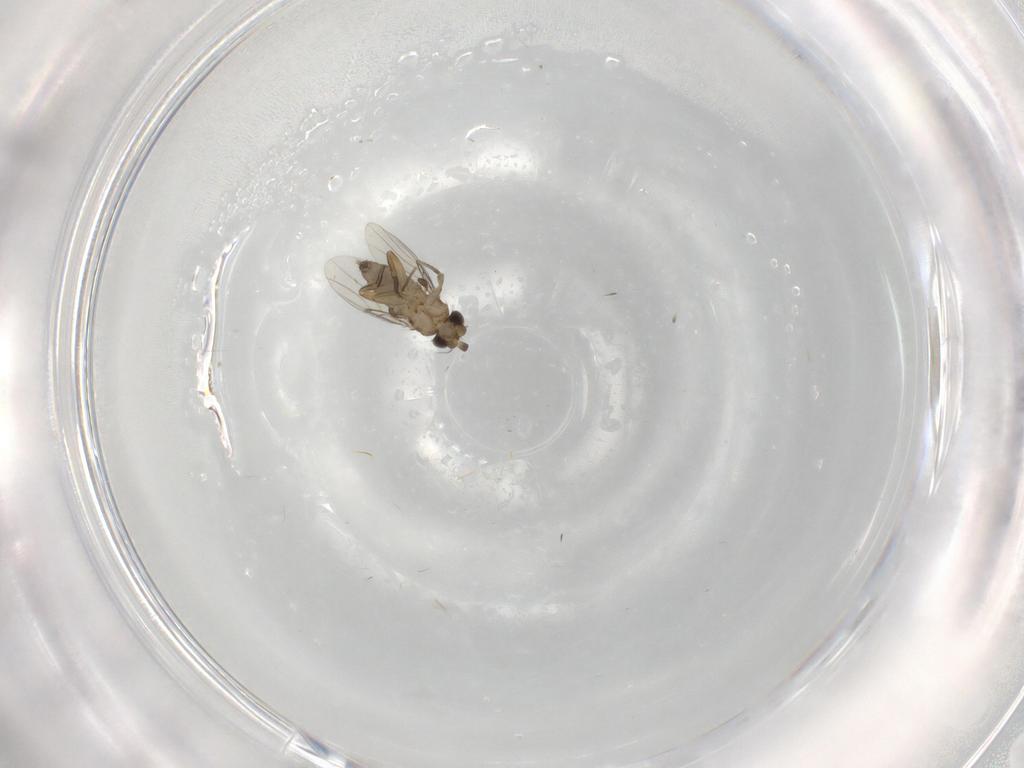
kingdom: Animalia
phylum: Arthropoda
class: Insecta
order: Diptera
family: Phoridae
